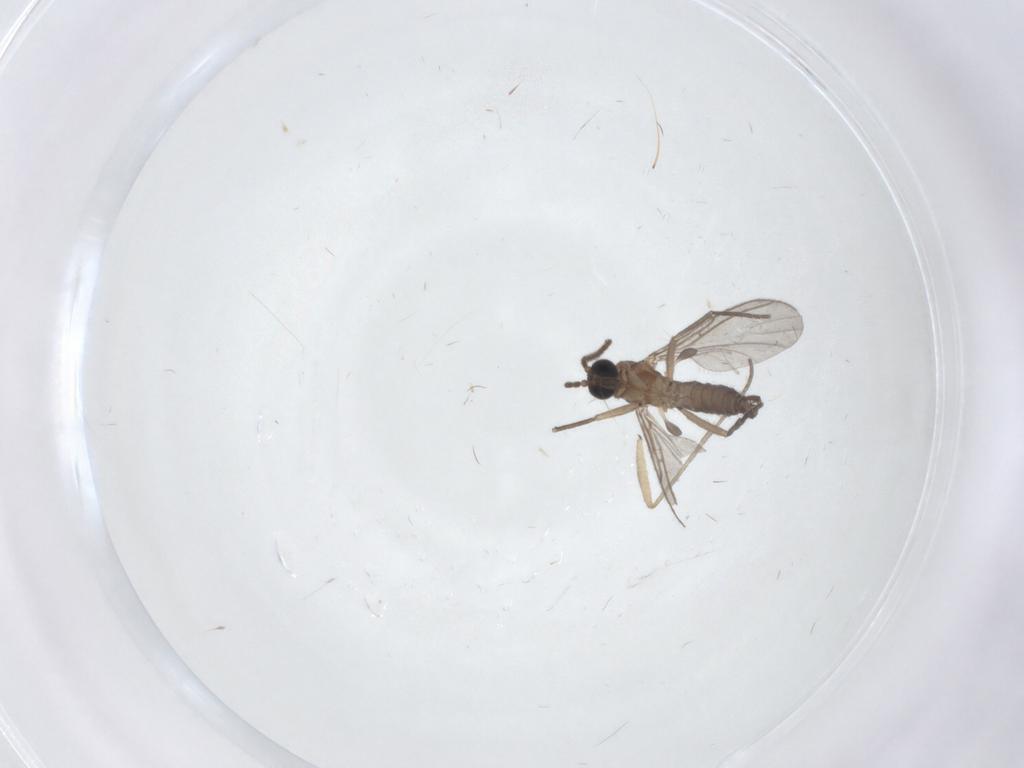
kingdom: Animalia
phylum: Arthropoda
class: Insecta
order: Diptera
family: Sciaridae
